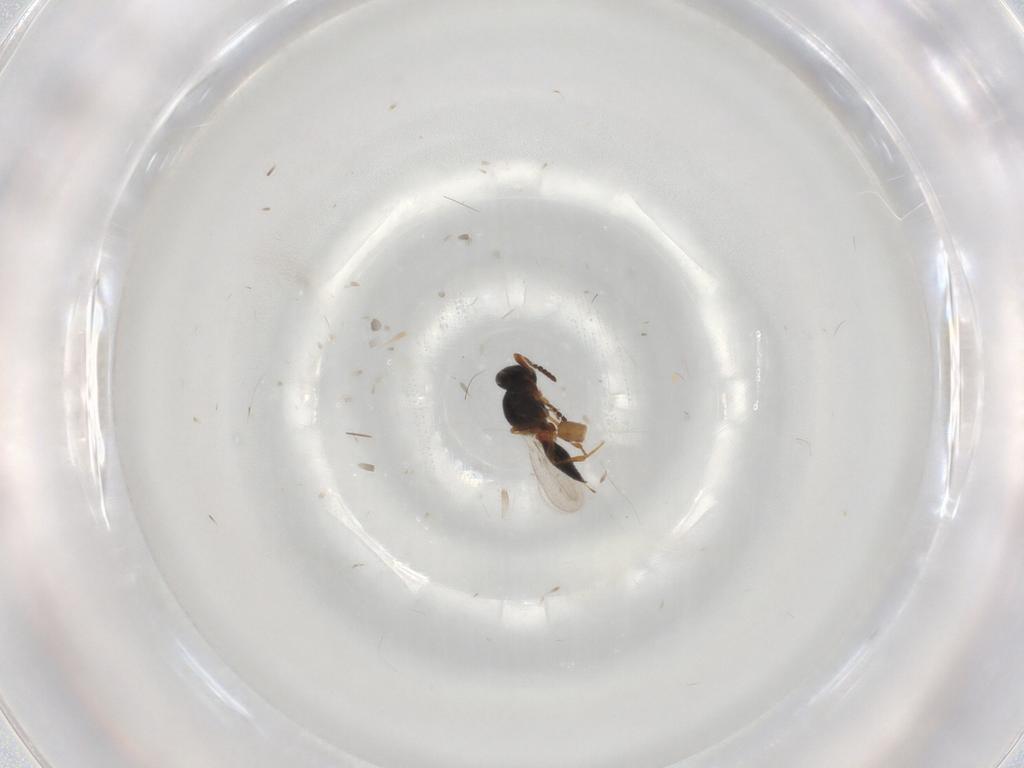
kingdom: Animalia
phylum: Arthropoda
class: Insecta
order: Hymenoptera
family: Platygastridae
